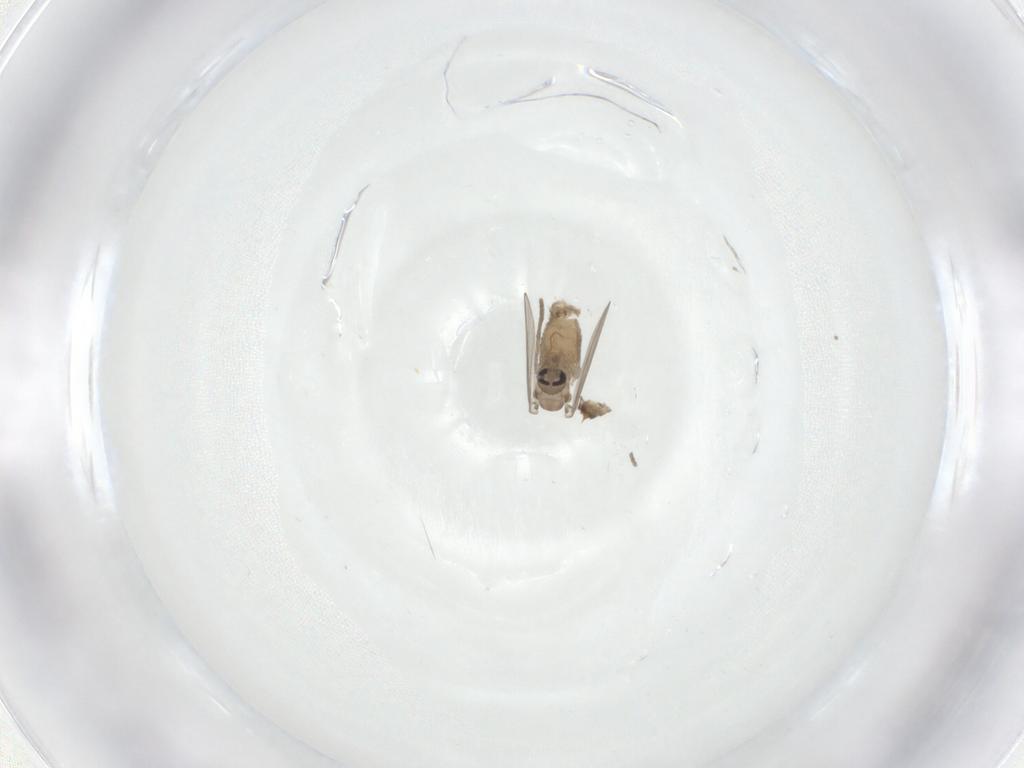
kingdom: Animalia
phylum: Arthropoda
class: Insecta
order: Diptera
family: Psychodidae
